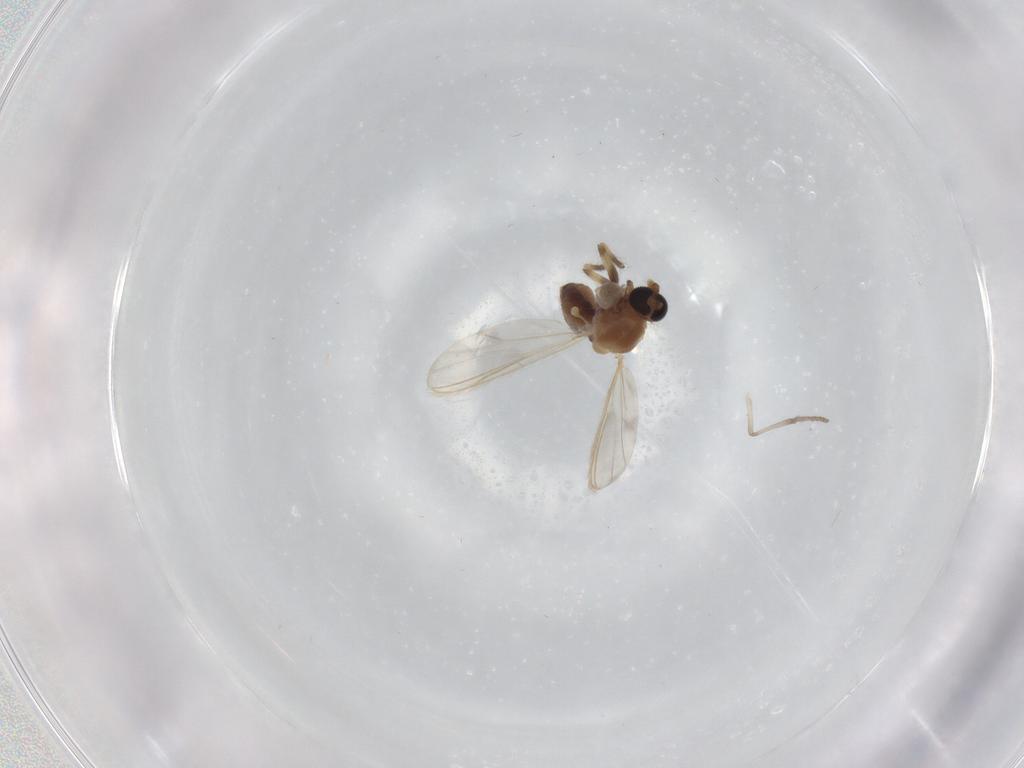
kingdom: Animalia
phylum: Arthropoda
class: Insecta
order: Diptera
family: Chironomidae
